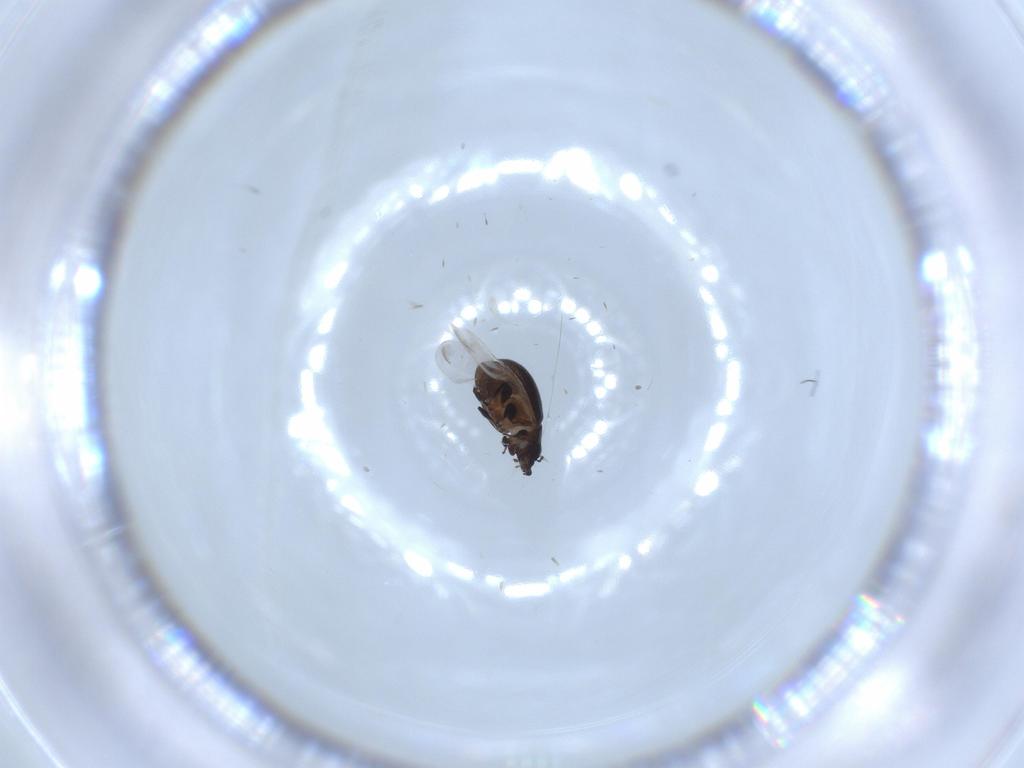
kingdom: Animalia
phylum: Arthropoda
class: Insecta
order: Coleoptera
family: Coccinellidae
